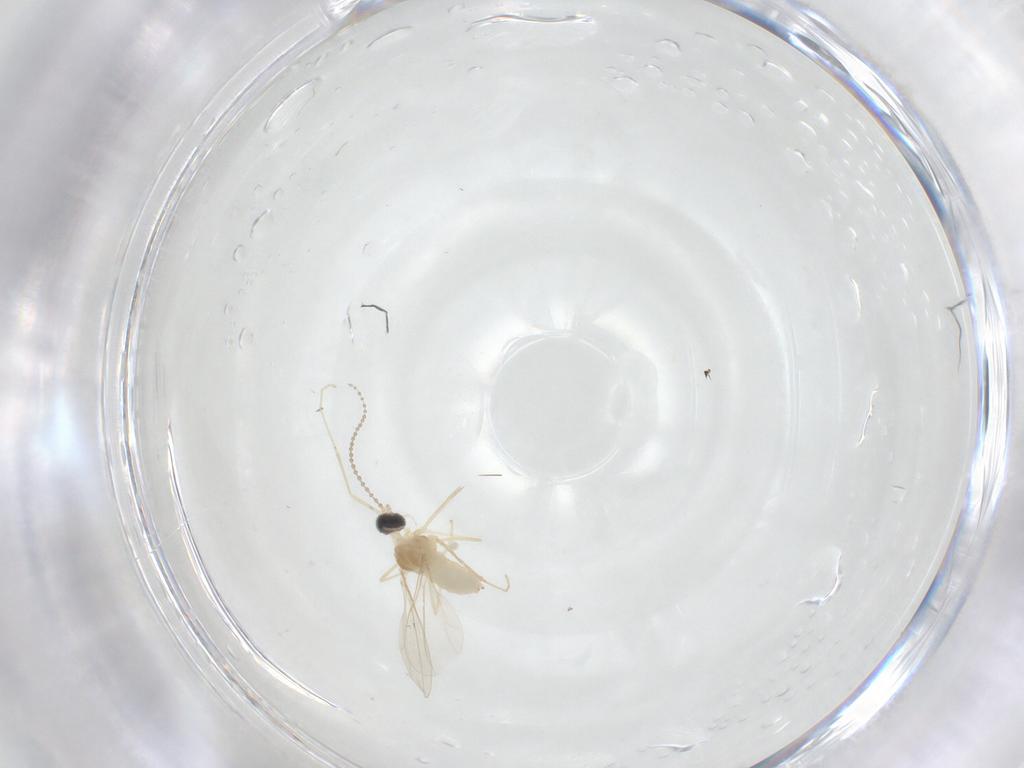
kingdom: Animalia
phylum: Arthropoda
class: Insecta
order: Diptera
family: Cecidomyiidae
